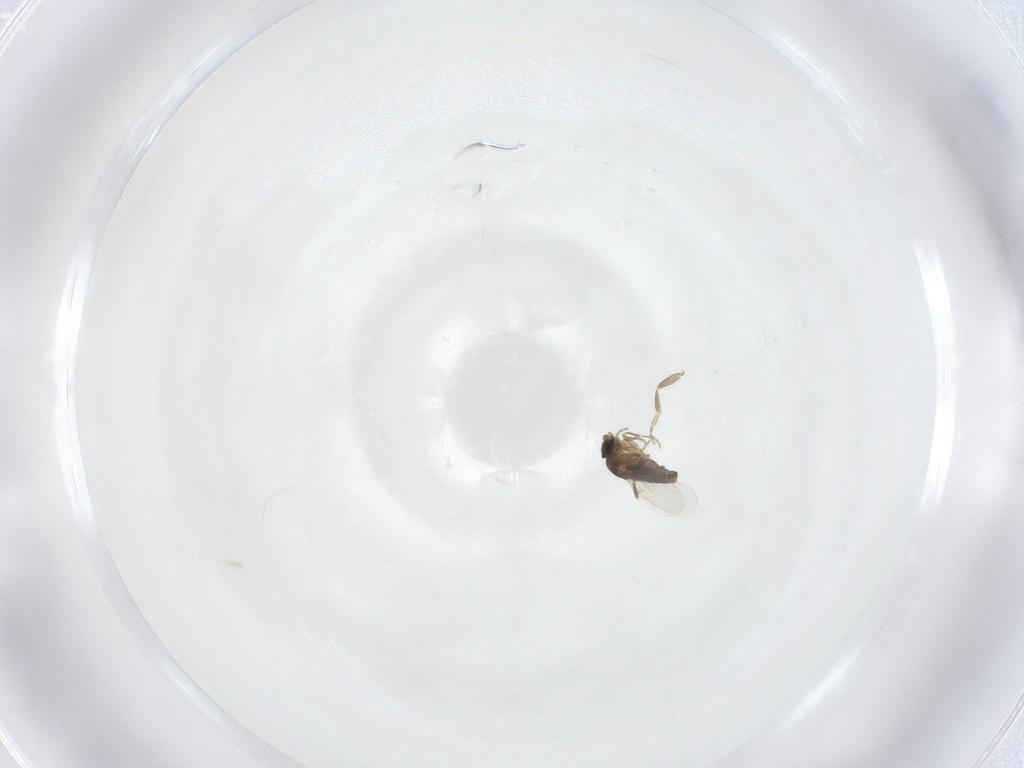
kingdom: Animalia
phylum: Arthropoda
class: Insecta
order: Diptera
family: Phoridae
